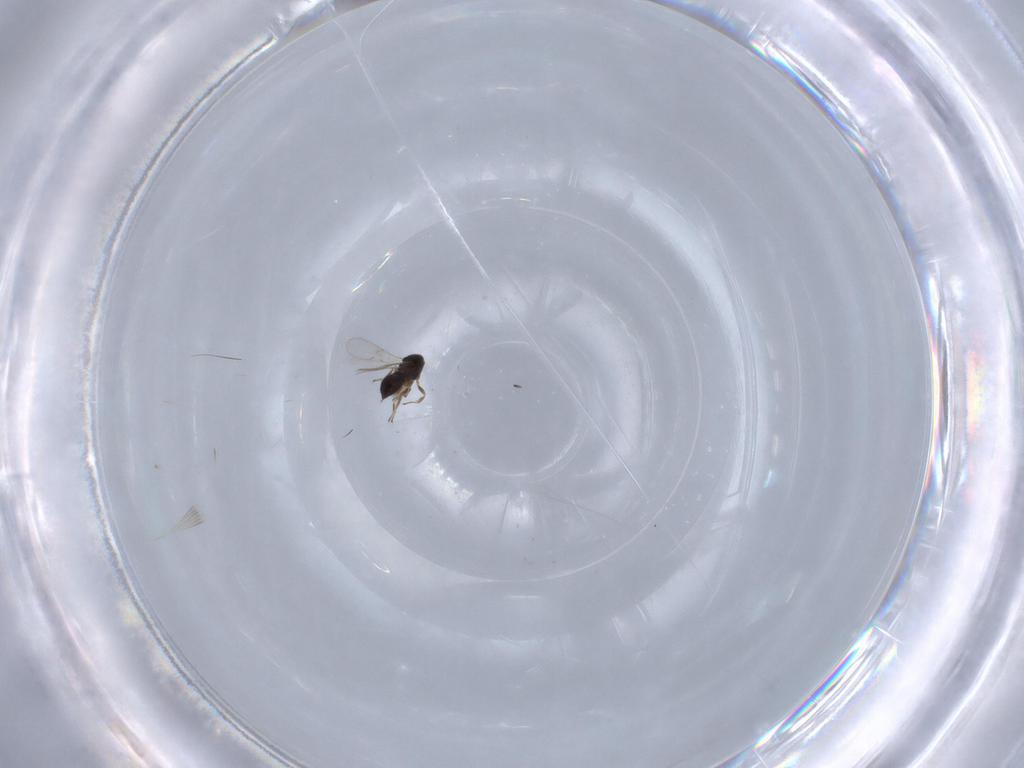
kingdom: Animalia
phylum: Arthropoda
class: Insecta
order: Hymenoptera
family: Scelionidae
